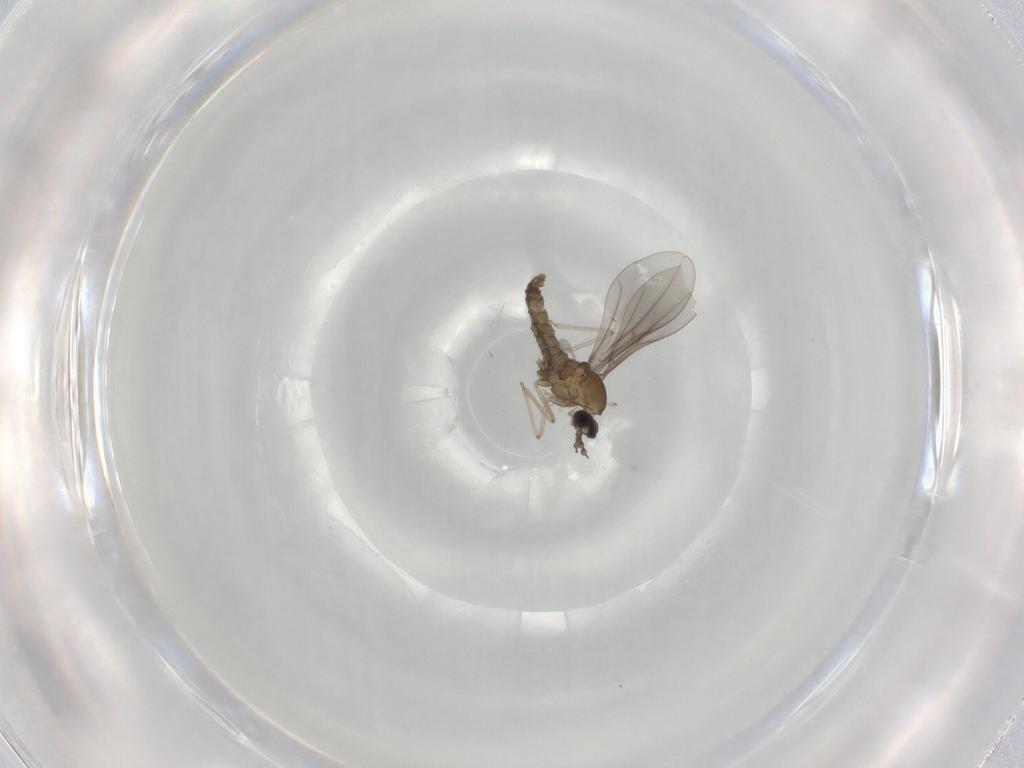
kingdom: Animalia
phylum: Arthropoda
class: Insecta
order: Diptera
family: Cecidomyiidae
